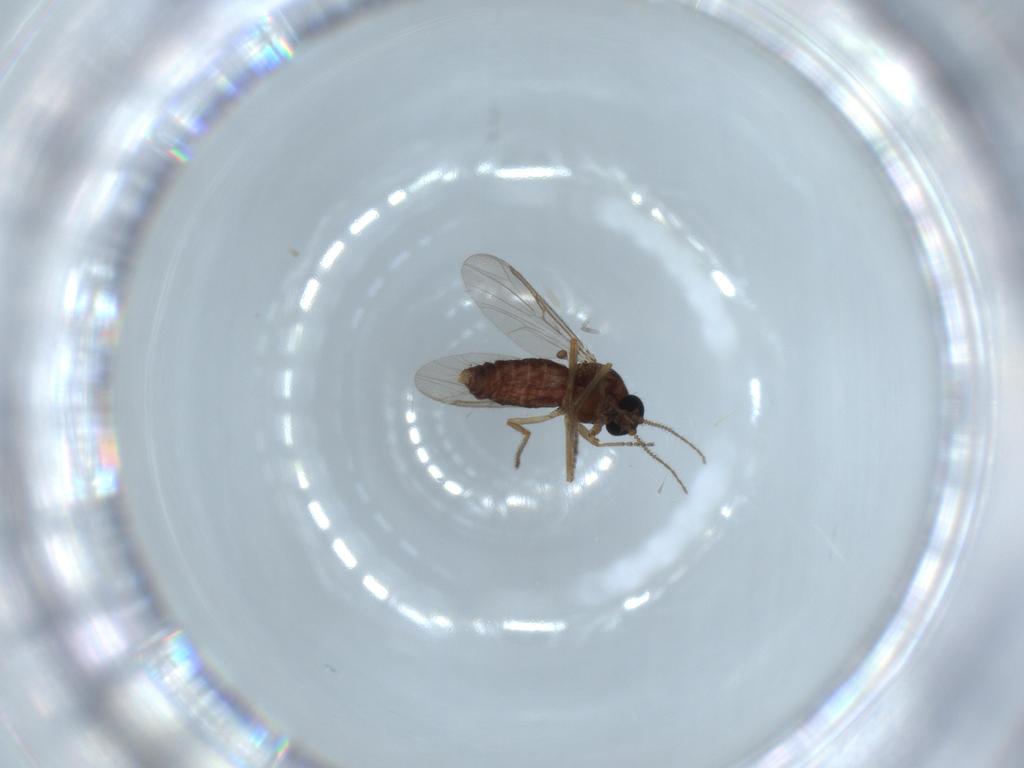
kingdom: Animalia
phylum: Arthropoda
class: Insecta
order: Diptera
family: Ceratopogonidae
